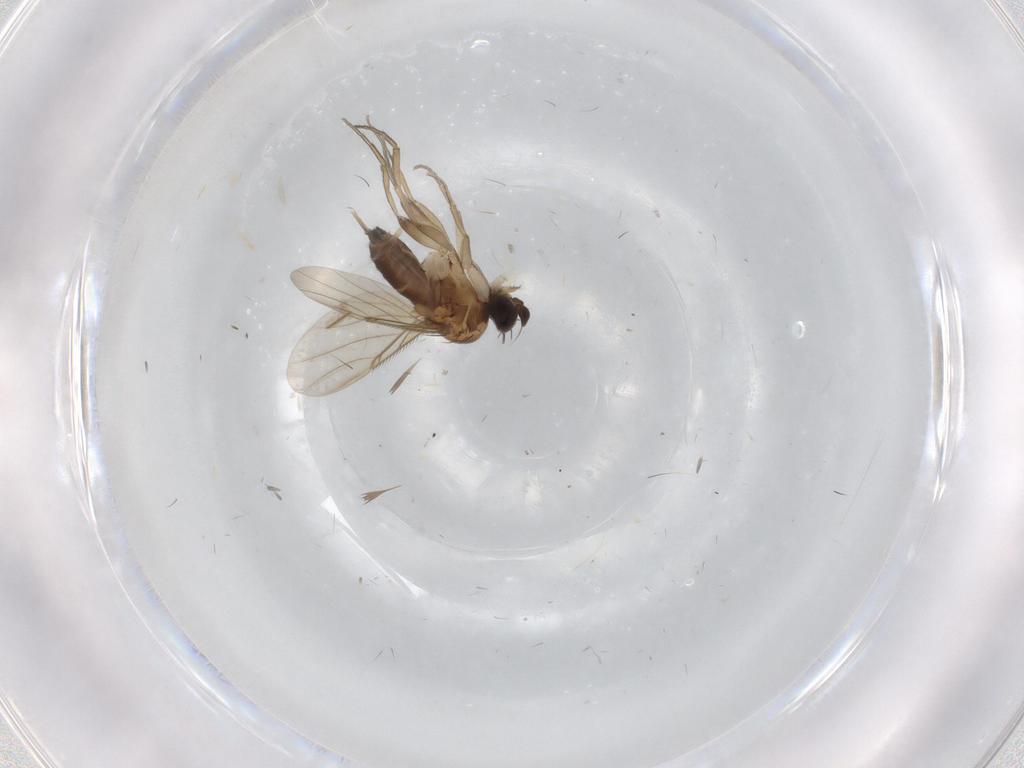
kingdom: Animalia
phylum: Arthropoda
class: Insecta
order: Diptera
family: Phoridae
